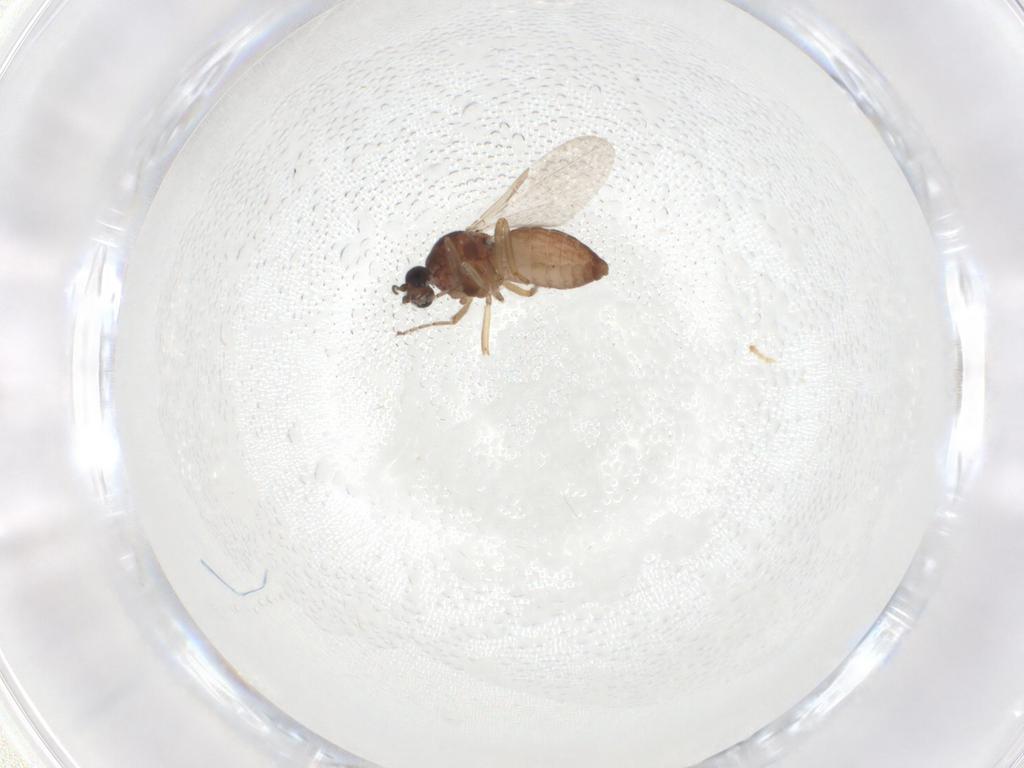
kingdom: Animalia
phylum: Arthropoda
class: Insecta
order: Diptera
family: Ceratopogonidae
